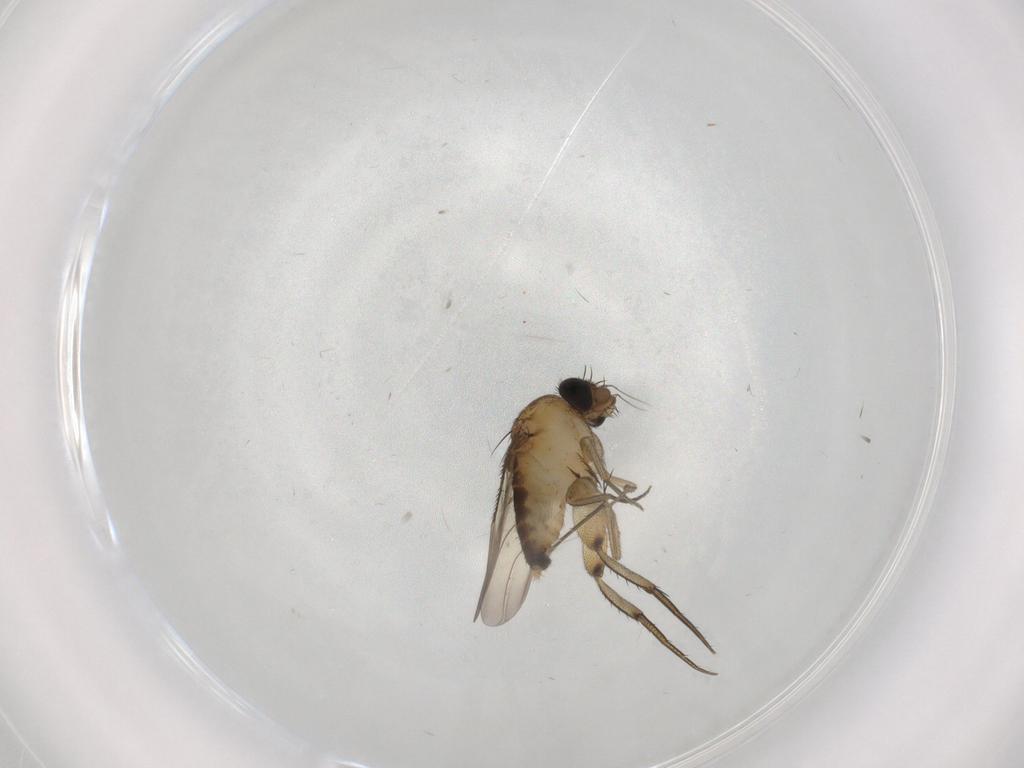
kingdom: Animalia
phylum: Arthropoda
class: Insecta
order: Diptera
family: Phoridae
